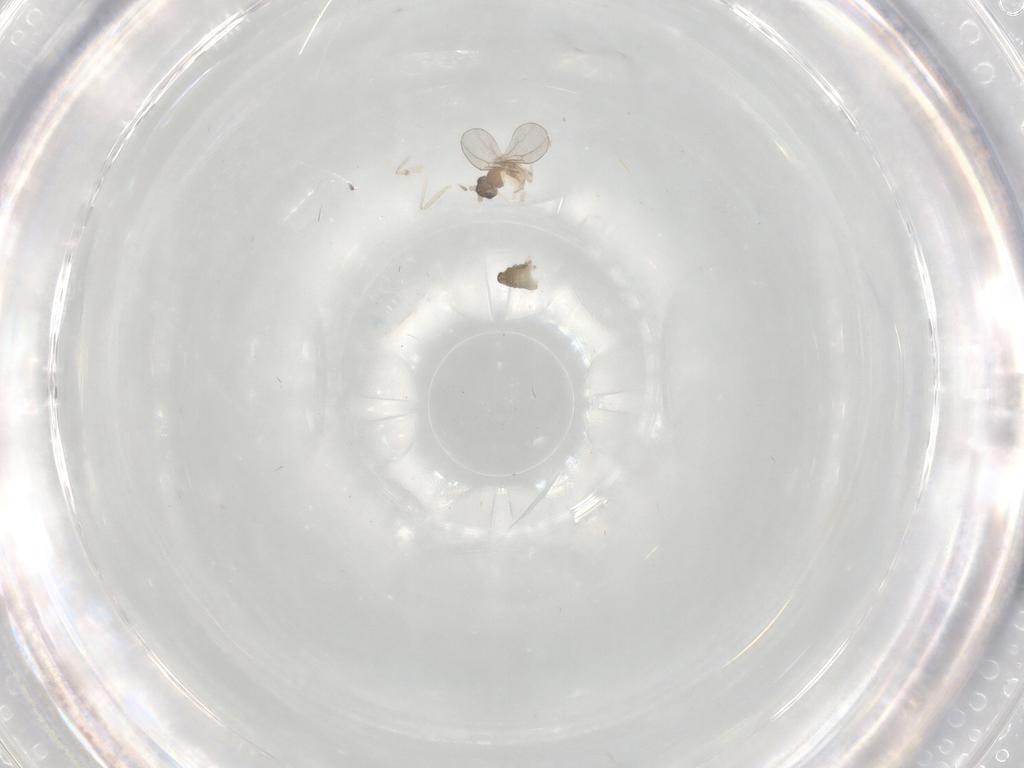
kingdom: Animalia
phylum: Arthropoda
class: Insecta
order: Diptera
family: Cecidomyiidae
